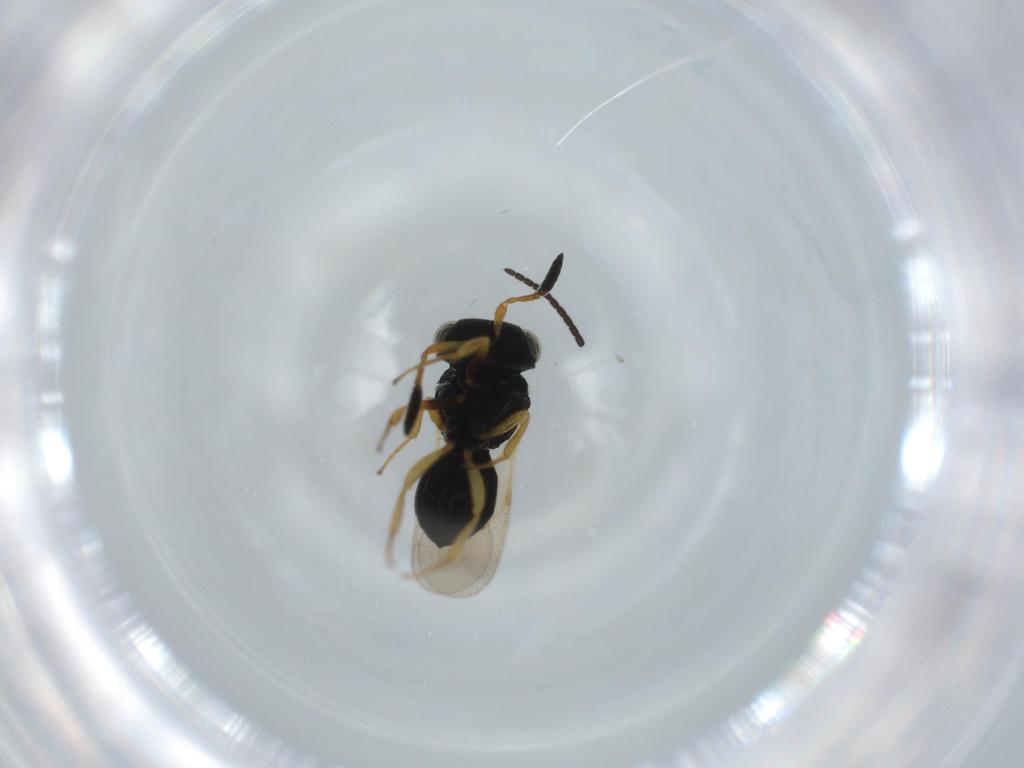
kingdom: Animalia
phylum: Arthropoda
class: Insecta
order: Hymenoptera
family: Scelionidae
